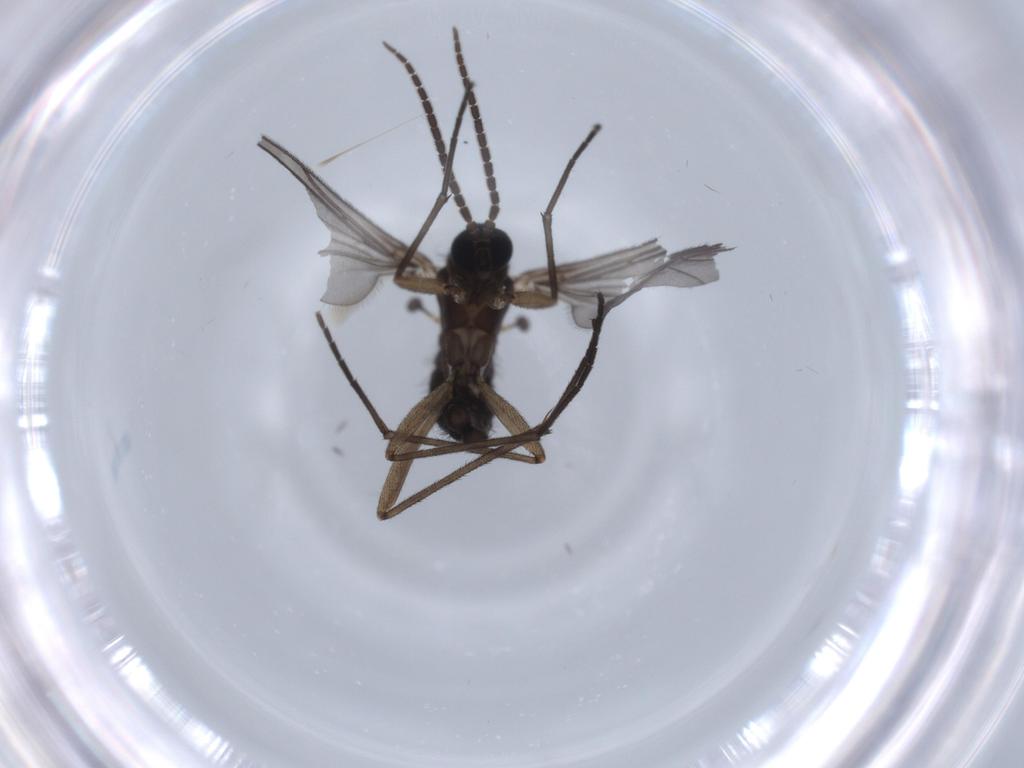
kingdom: Animalia
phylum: Arthropoda
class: Insecta
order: Diptera
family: Sciaridae
